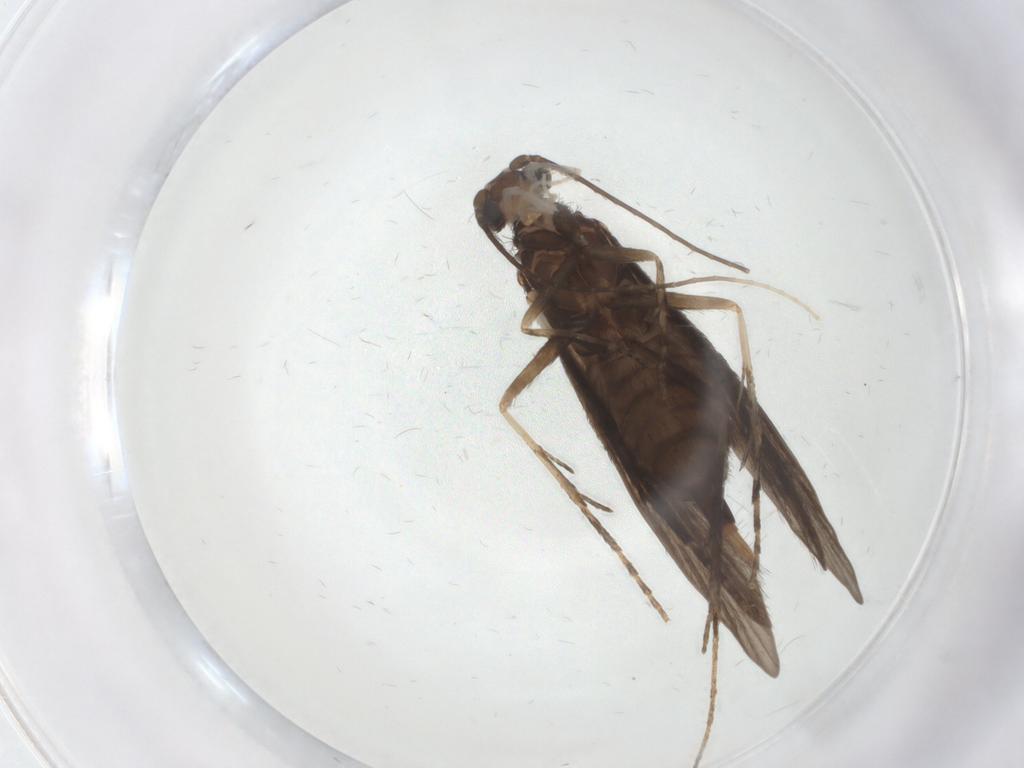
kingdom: Animalia
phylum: Arthropoda
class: Insecta
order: Trichoptera
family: Xiphocentronidae
